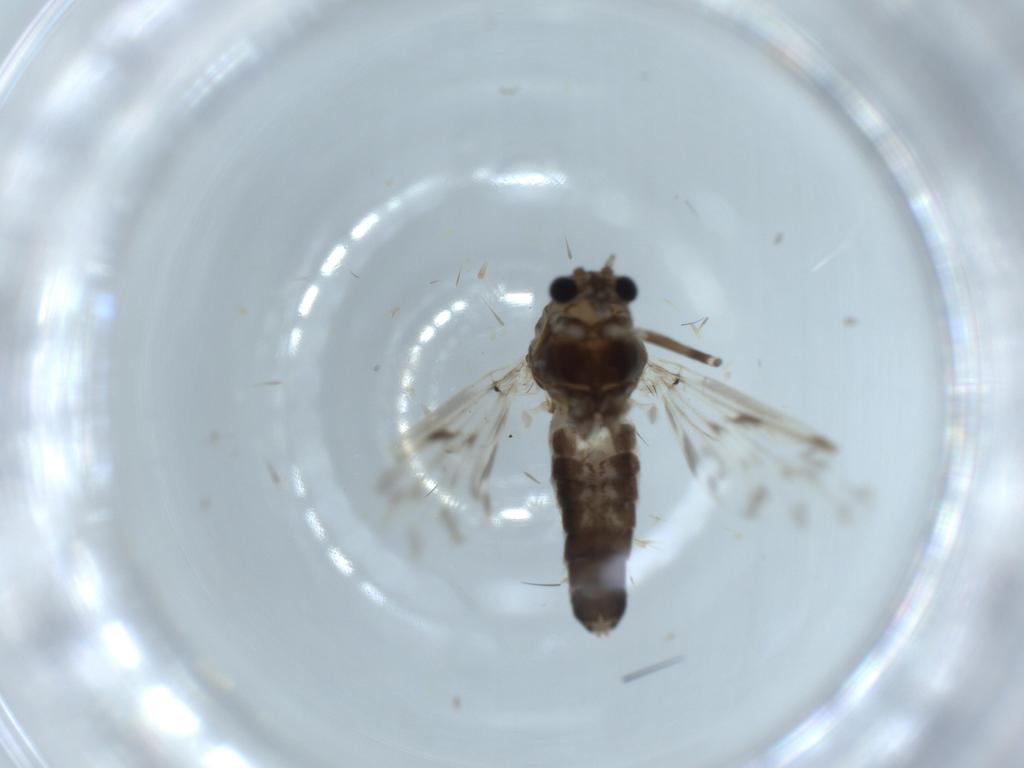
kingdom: Animalia
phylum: Arthropoda
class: Insecta
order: Diptera
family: Chironomidae
